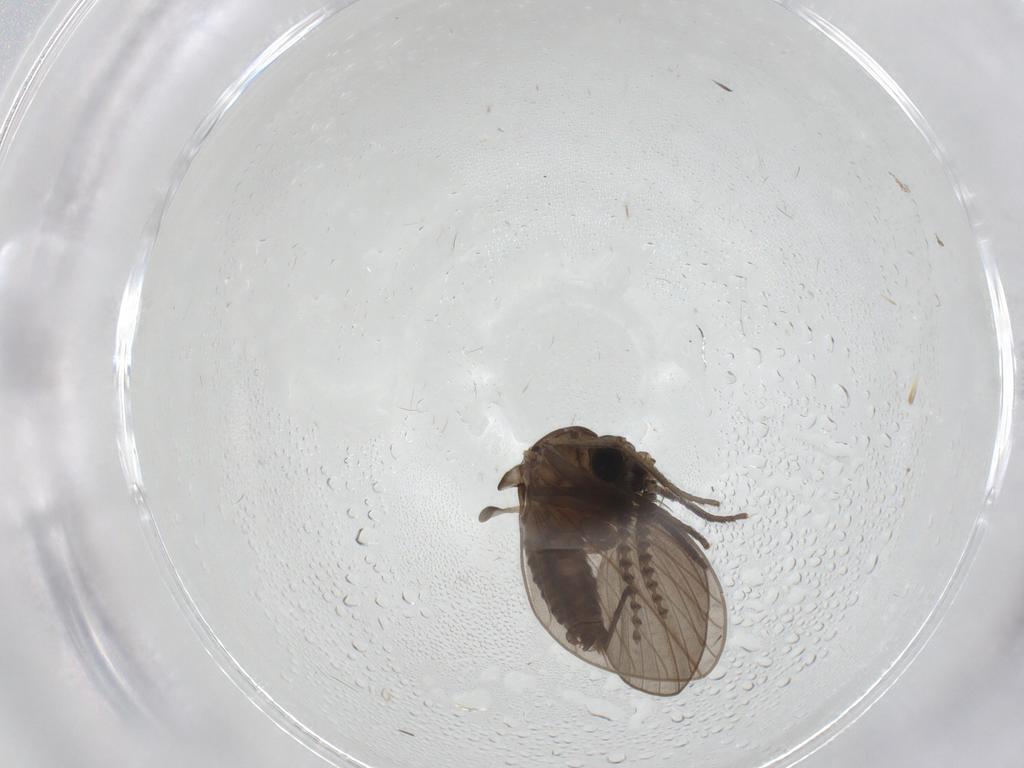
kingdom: Animalia
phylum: Arthropoda
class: Insecta
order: Diptera
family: Psychodidae
